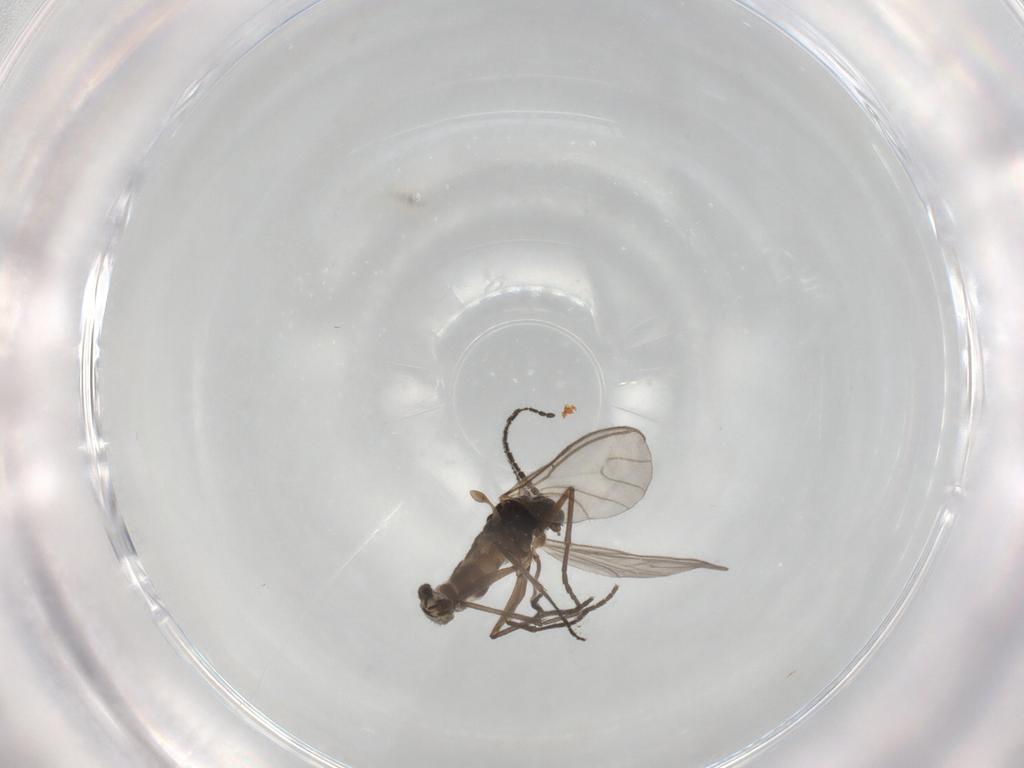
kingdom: Animalia
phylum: Arthropoda
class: Insecta
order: Diptera
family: Sciaridae
